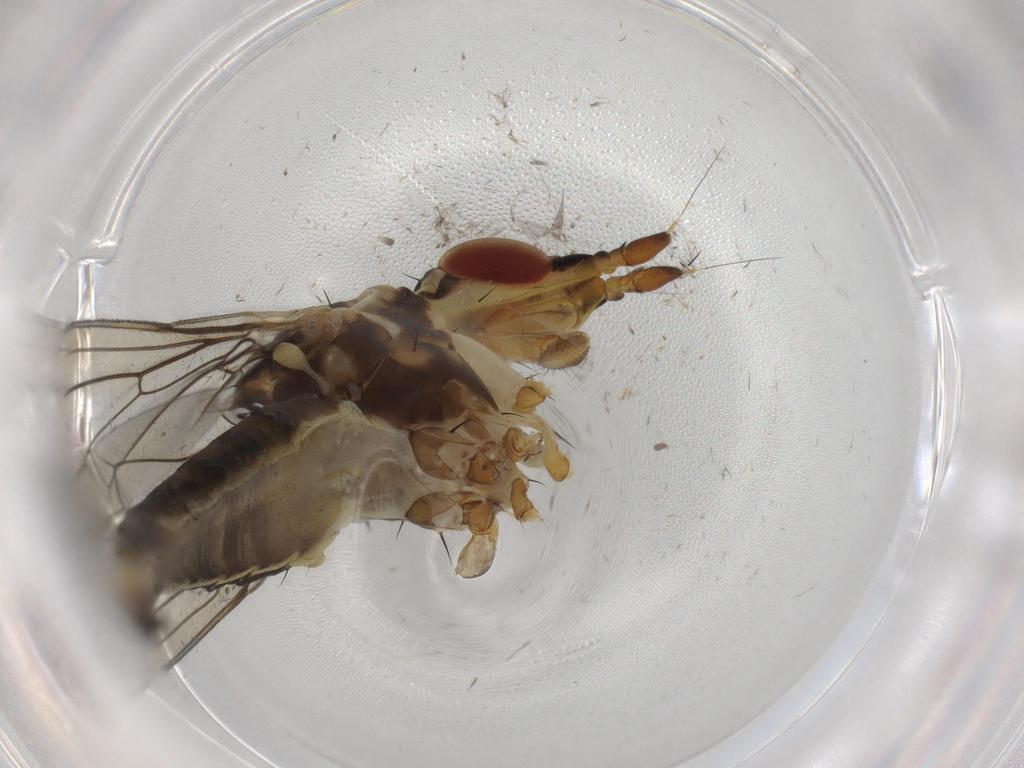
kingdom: Animalia
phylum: Arthropoda
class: Insecta
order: Diptera
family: Neriidae
